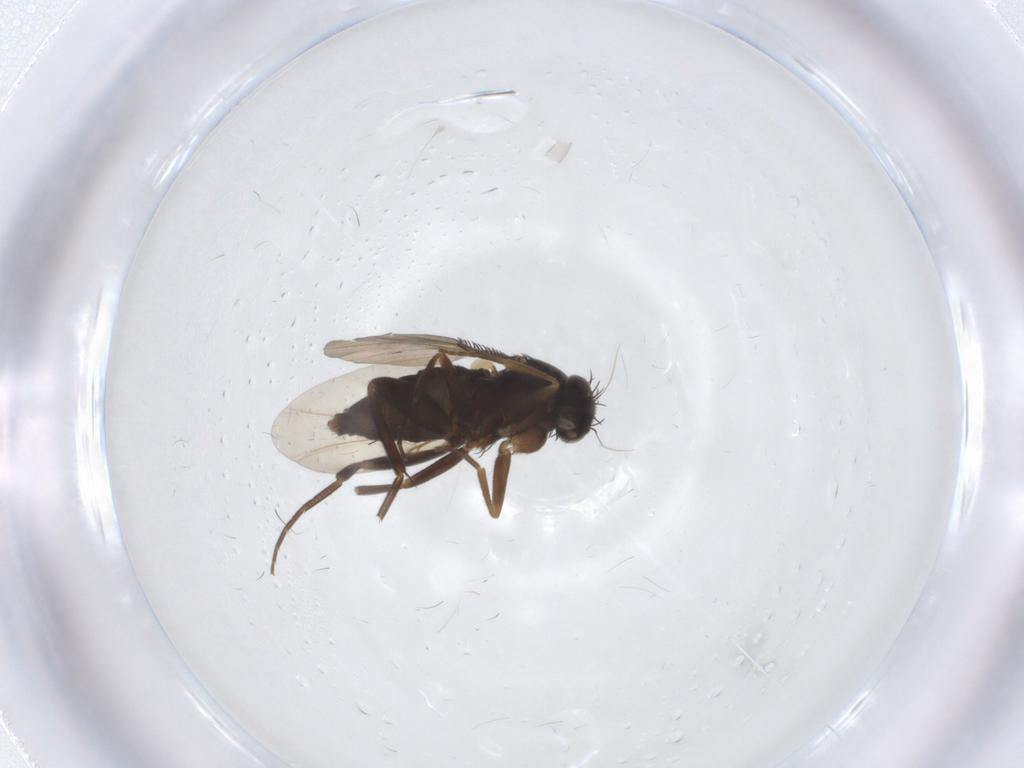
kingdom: Animalia
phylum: Arthropoda
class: Insecta
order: Diptera
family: Phoridae
